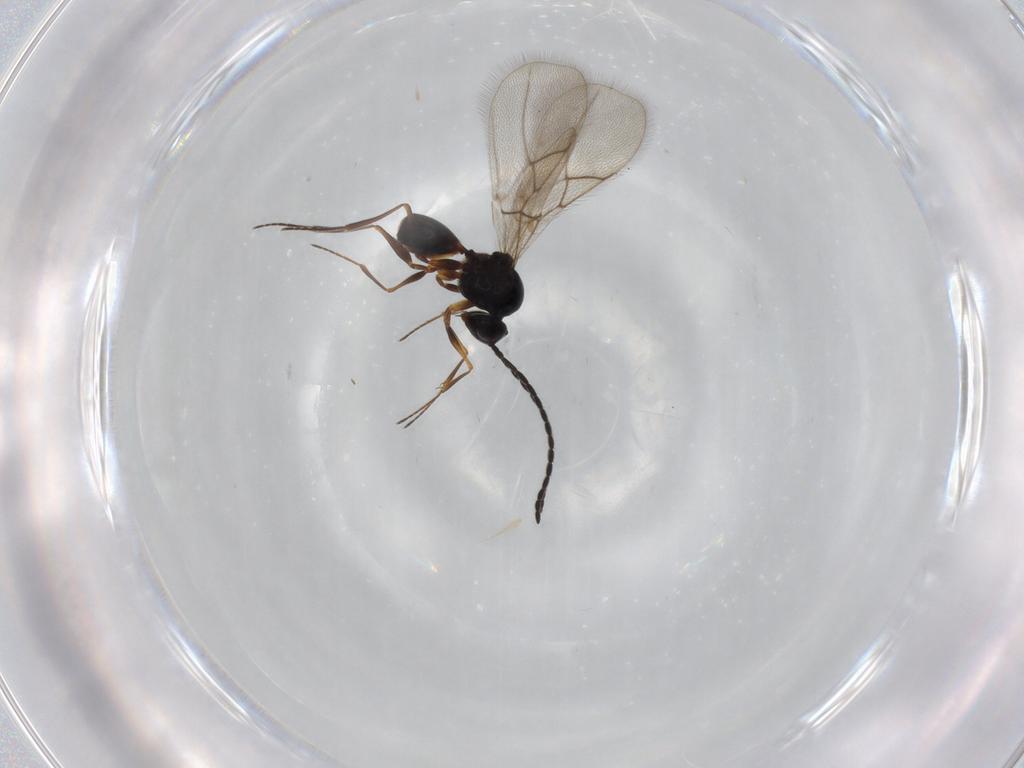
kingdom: Animalia
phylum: Arthropoda
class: Insecta
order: Hymenoptera
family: Figitidae
